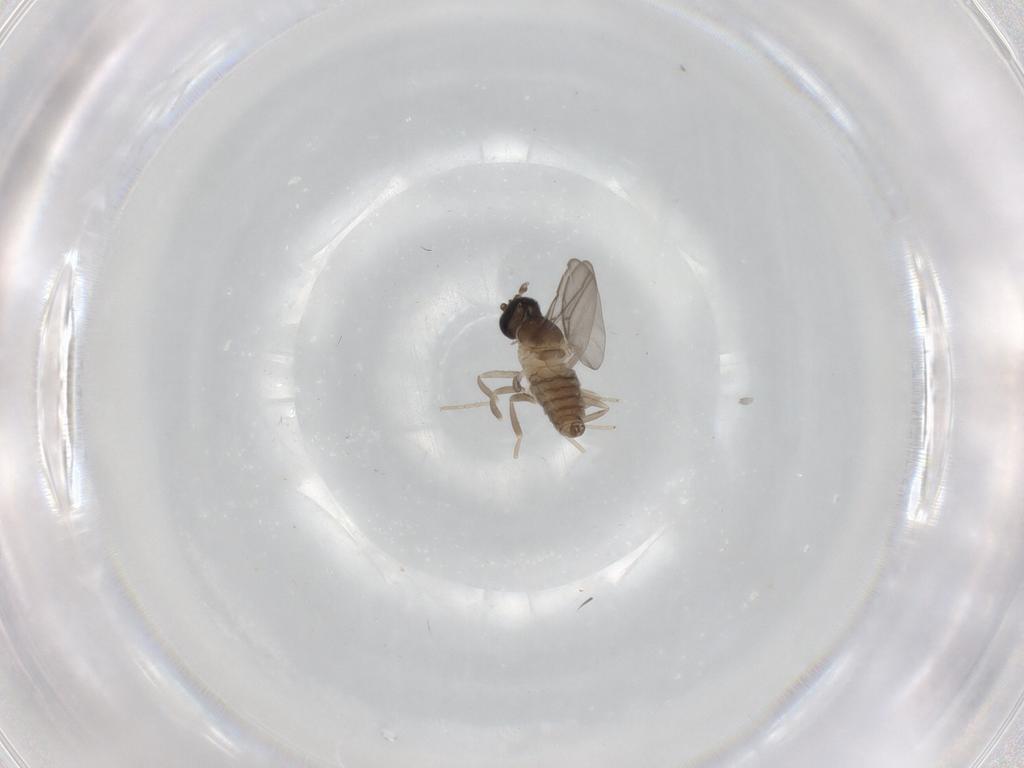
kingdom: Animalia
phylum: Arthropoda
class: Insecta
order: Diptera
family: Cecidomyiidae
